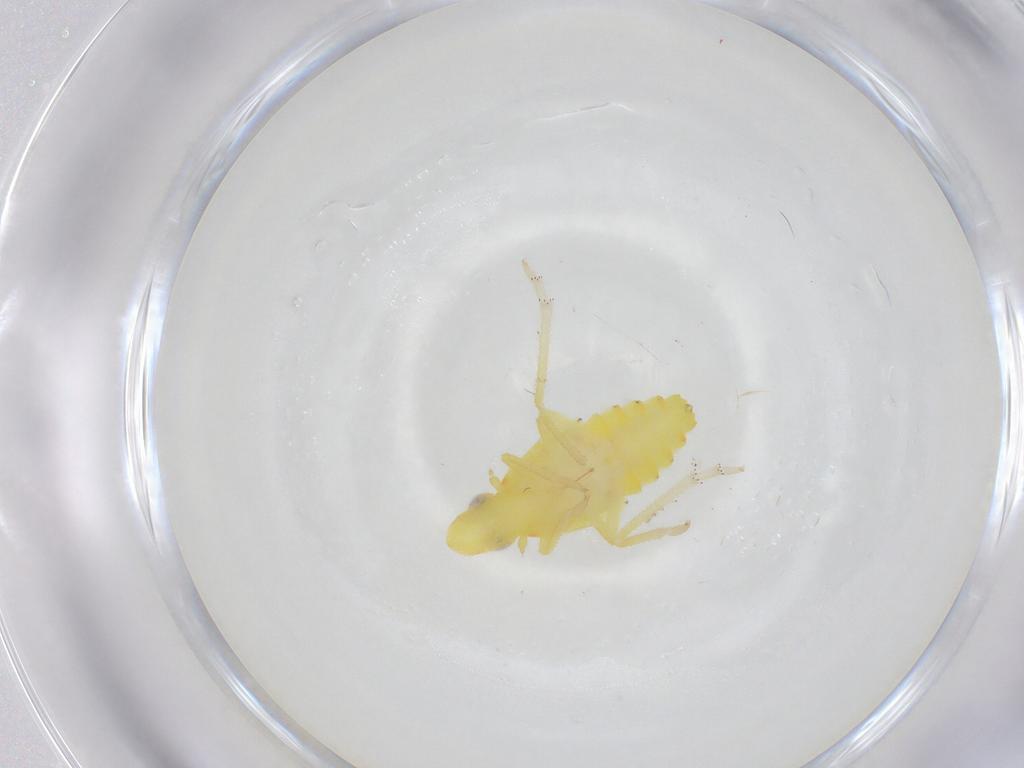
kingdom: Animalia
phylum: Arthropoda
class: Insecta
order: Hemiptera
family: Tropiduchidae
